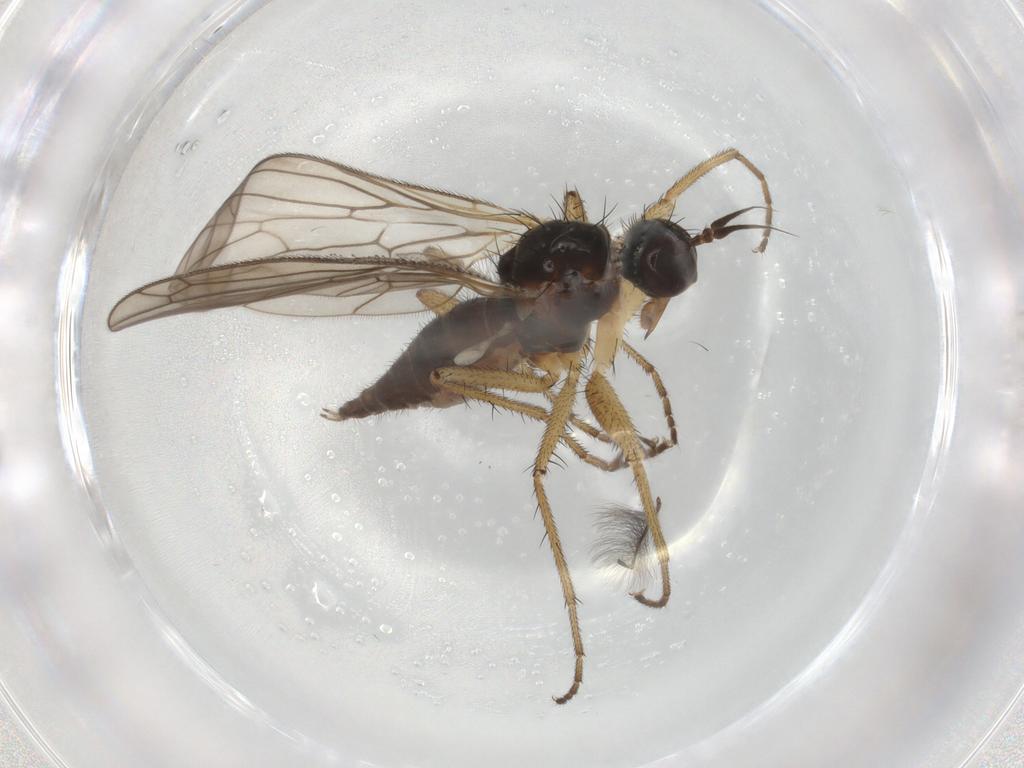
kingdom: Animalia
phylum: Arthropoda
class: Insecta
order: Diptera
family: Empididae
